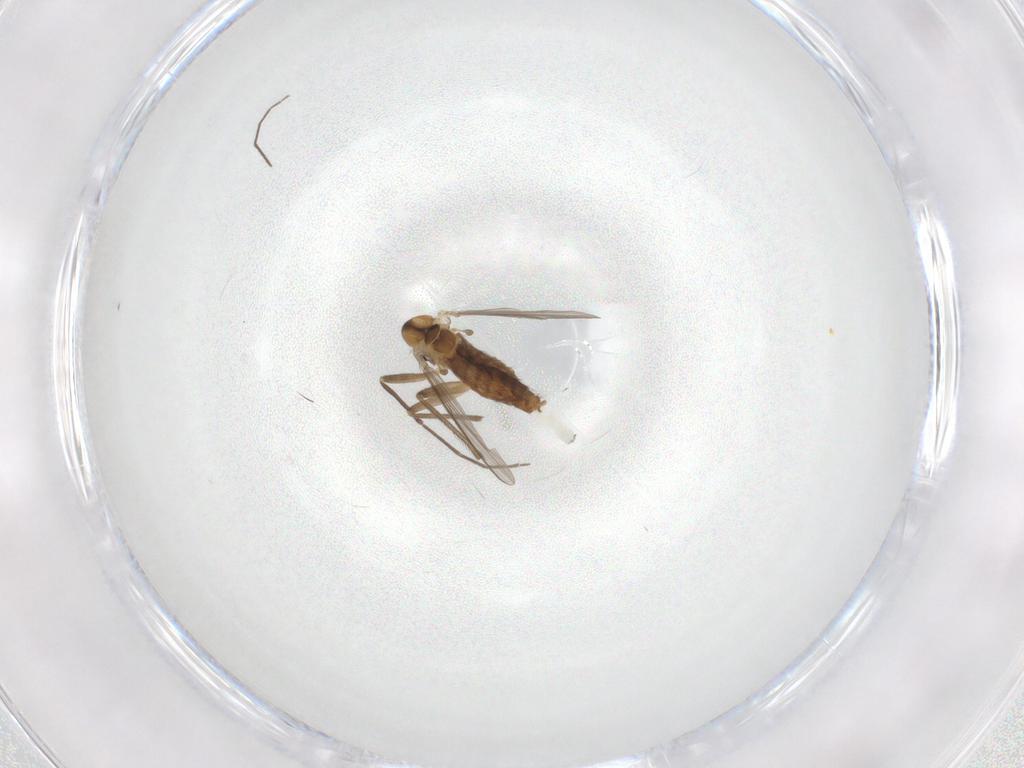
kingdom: Animalia
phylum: Arthropoda
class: Insecta
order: Diptera
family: Chironomidae
